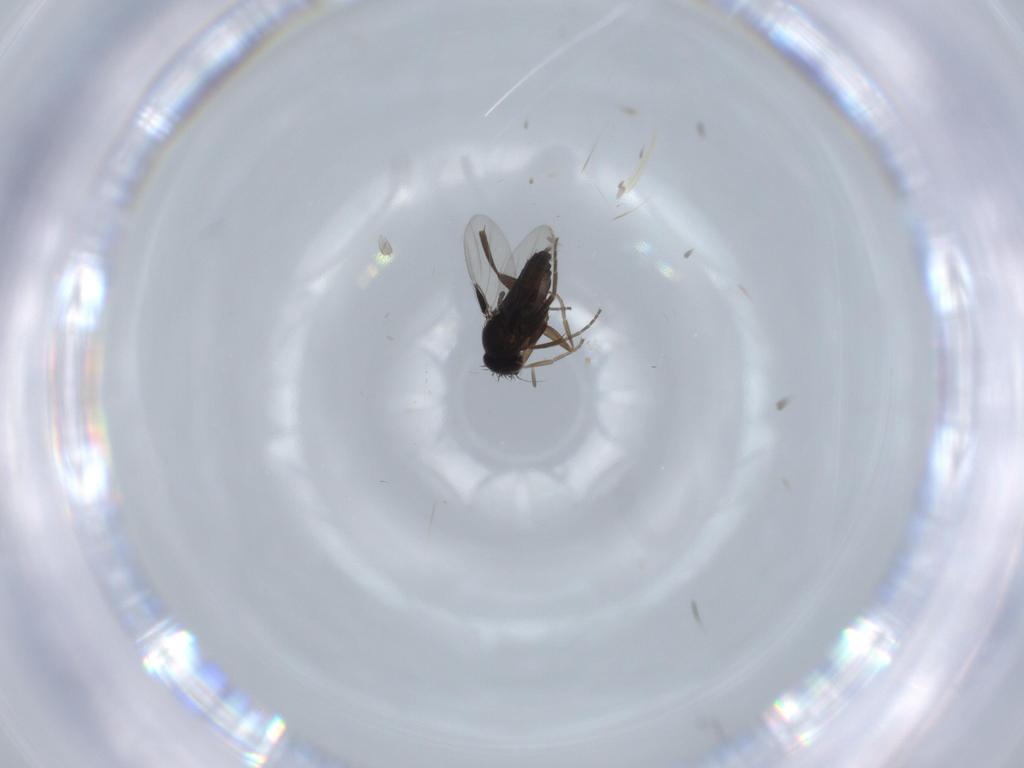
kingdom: Animalia
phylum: Arthropoda
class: Insecta
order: Diptera
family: Phoridae
